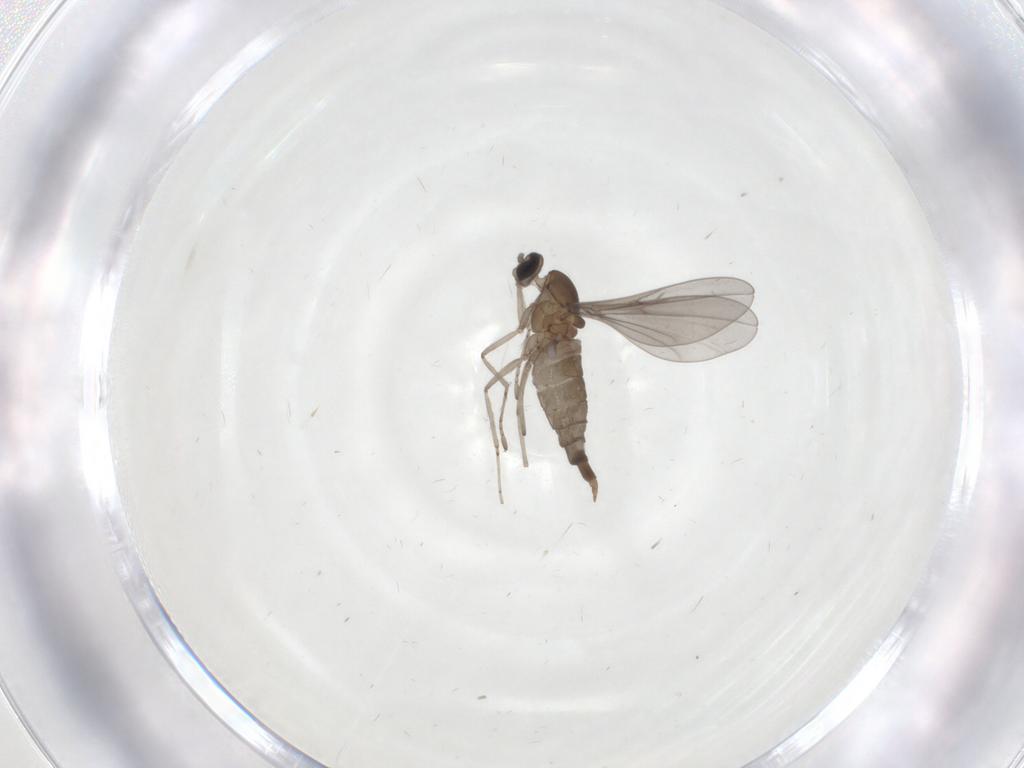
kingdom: Animalia
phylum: Arthropoda
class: Insecta
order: Diptera
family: Cecidomyiidae
